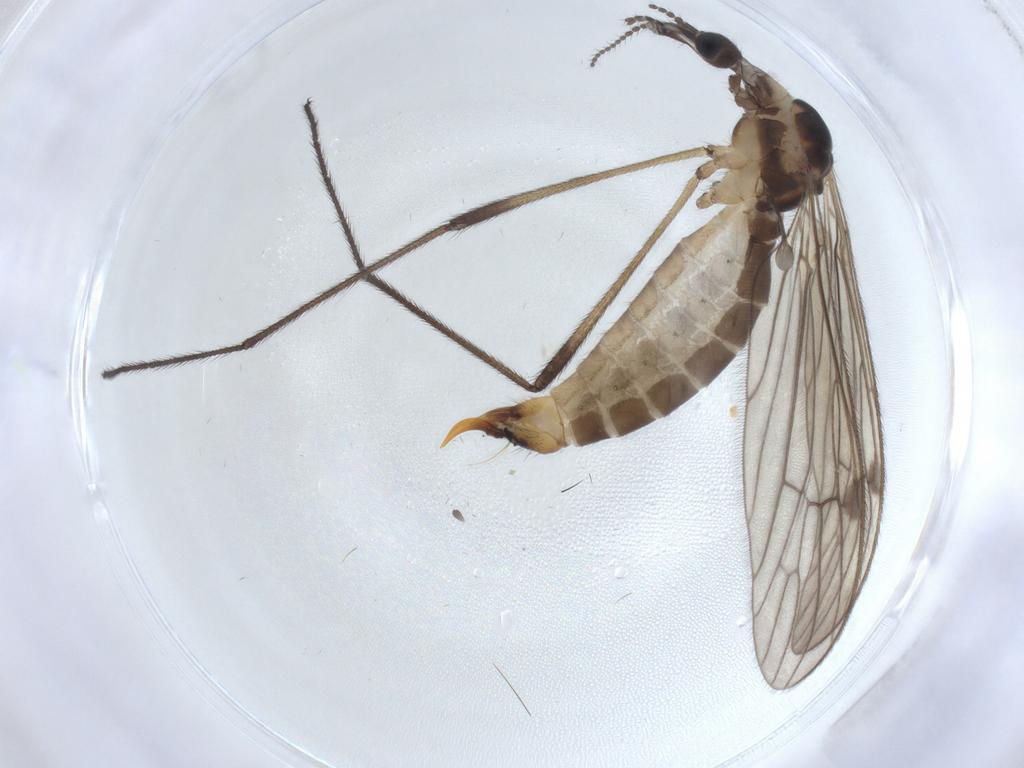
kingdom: Animalia
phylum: Arthropoda
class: Insecta
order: Diptera
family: Limoniidae
